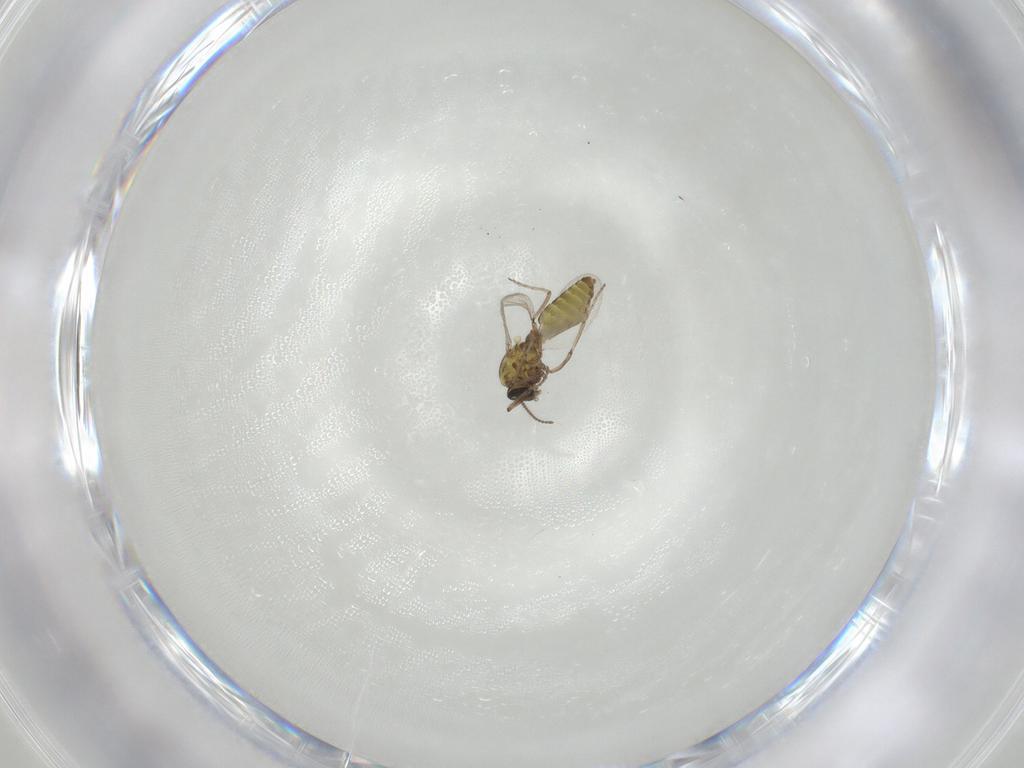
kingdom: Animalia
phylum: Arthropoda
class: Insecta
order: Diptera
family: Ceratopogonidae
